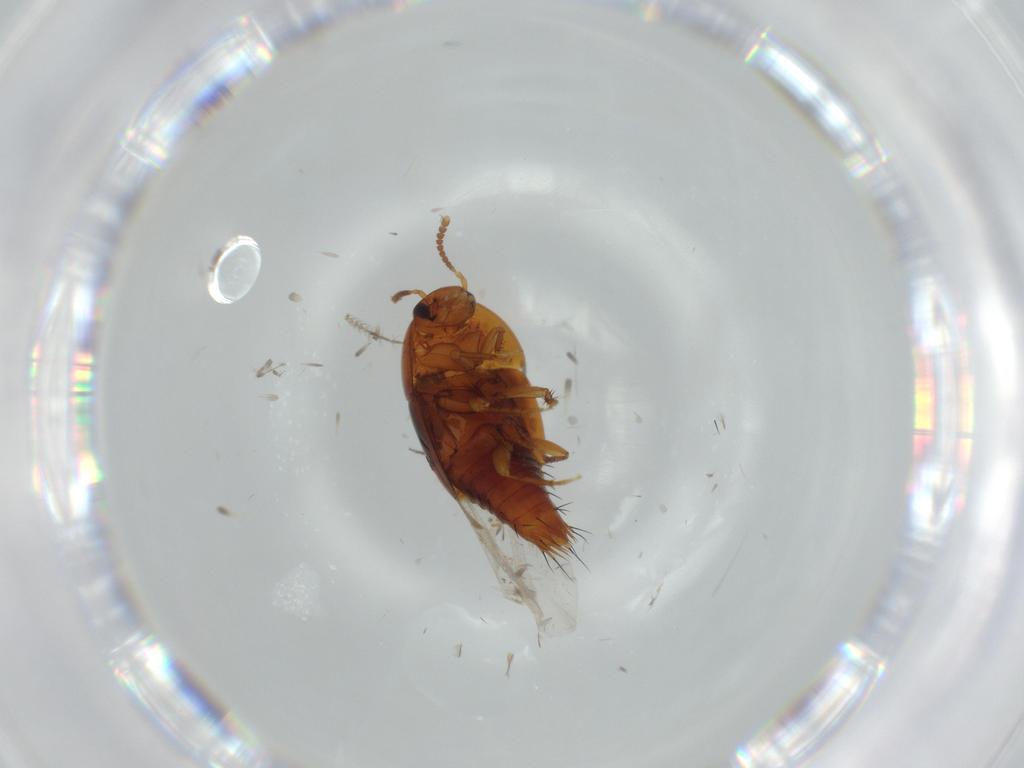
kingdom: Animalia
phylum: Arthropoda
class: Insecta
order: Coleoptera
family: Staphylinidae
